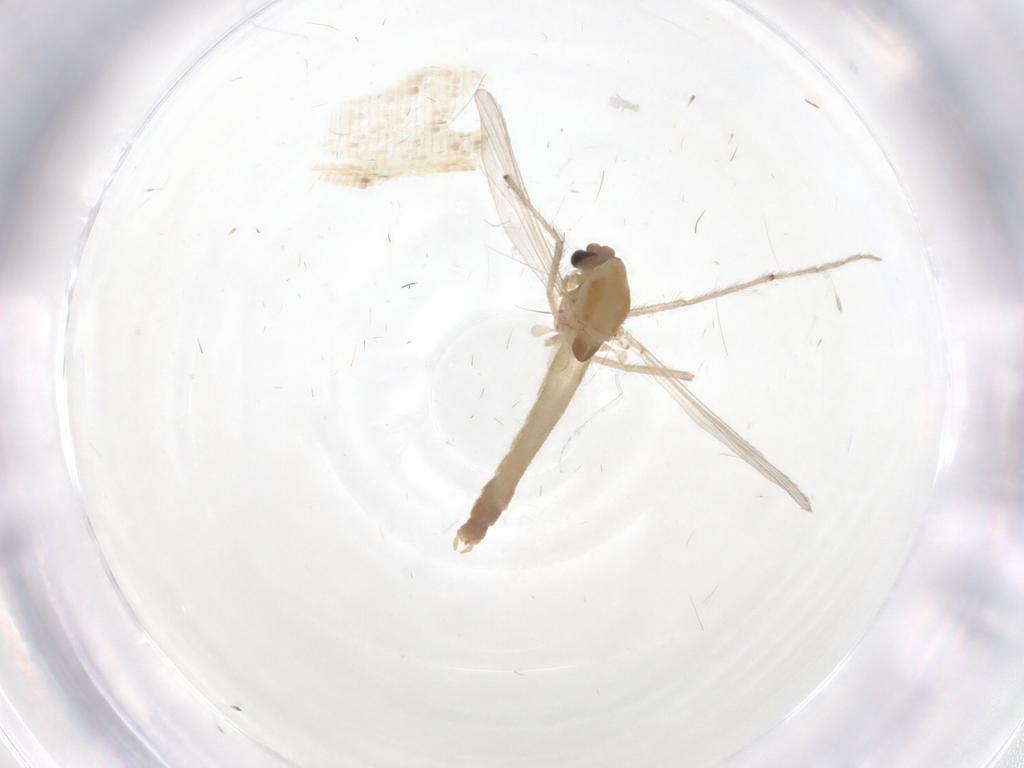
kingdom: Animalia
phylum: Arthropoda
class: Insecta
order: Diptera
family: Chironomidae
